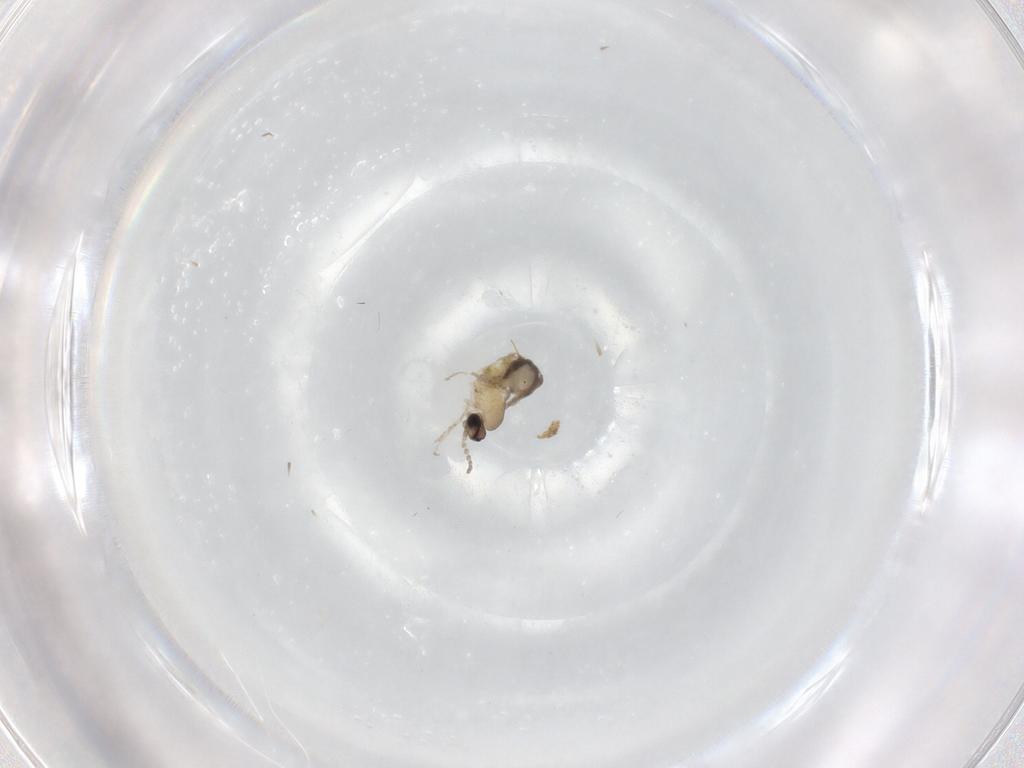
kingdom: Animalia
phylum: Arthropoda
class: Insecta
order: Diptera
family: Cecidomyiidae
